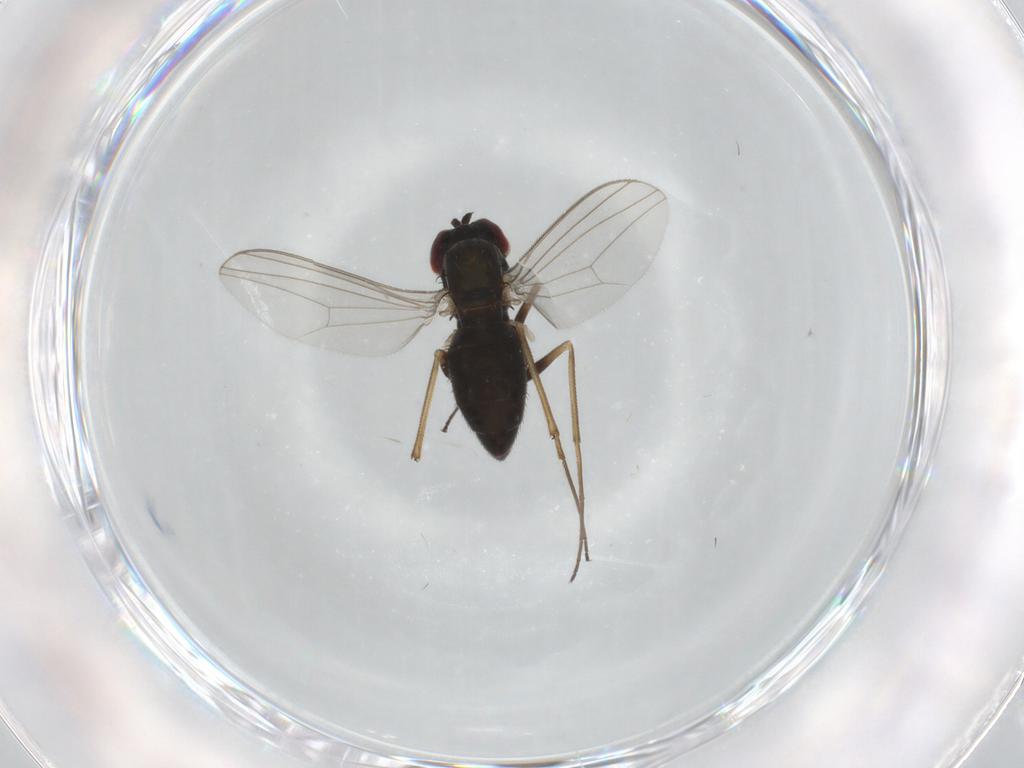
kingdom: Animalia
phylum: Arthropoda
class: Insecta
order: Diptera
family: Dolichopodidae
